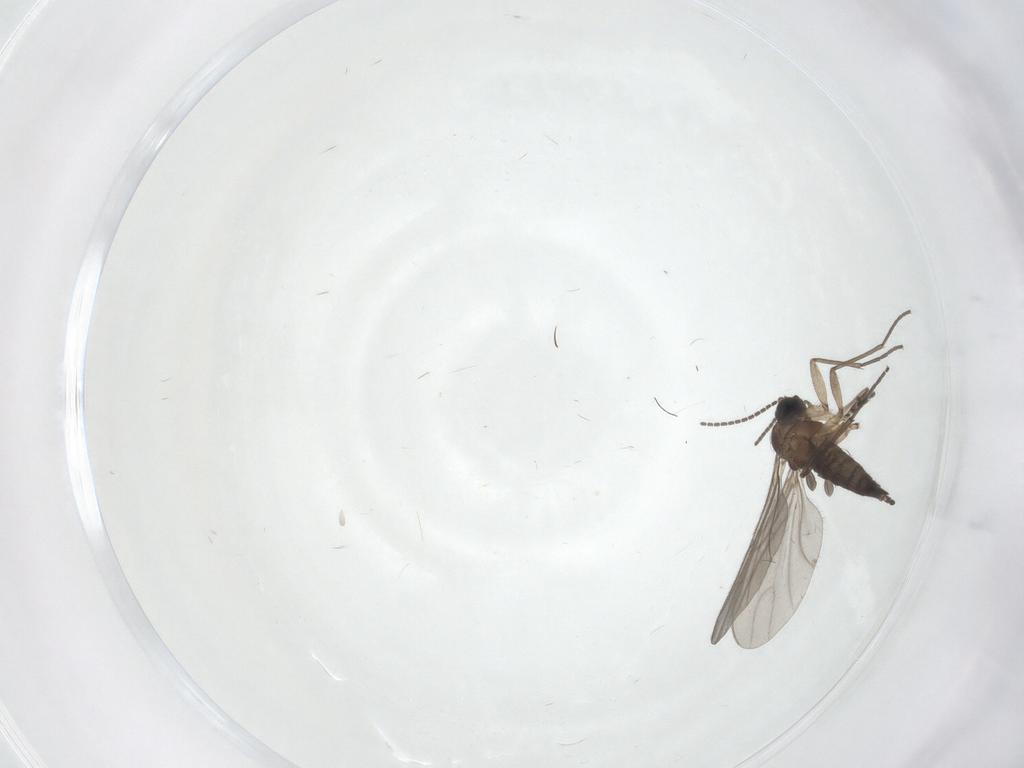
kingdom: Animalia
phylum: Arthropoda
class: Insecta
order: Diptera
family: Sciaridae
